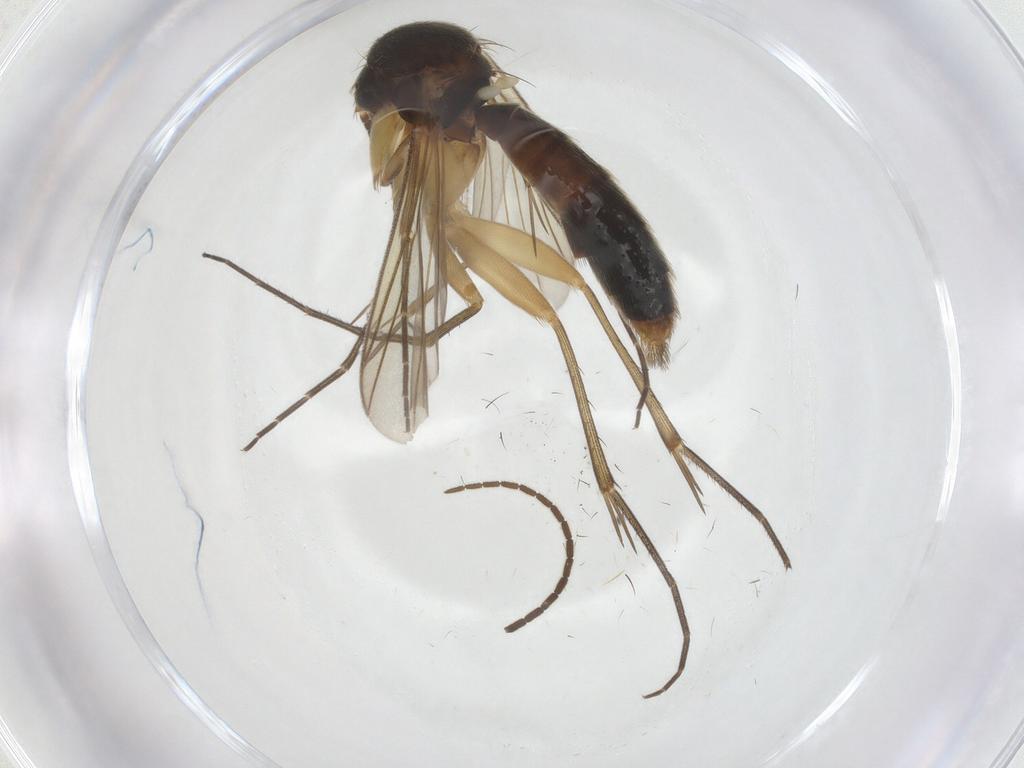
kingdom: Animalia
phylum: Arthropoda
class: Insecta
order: Diptera
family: Mycetophilidae
